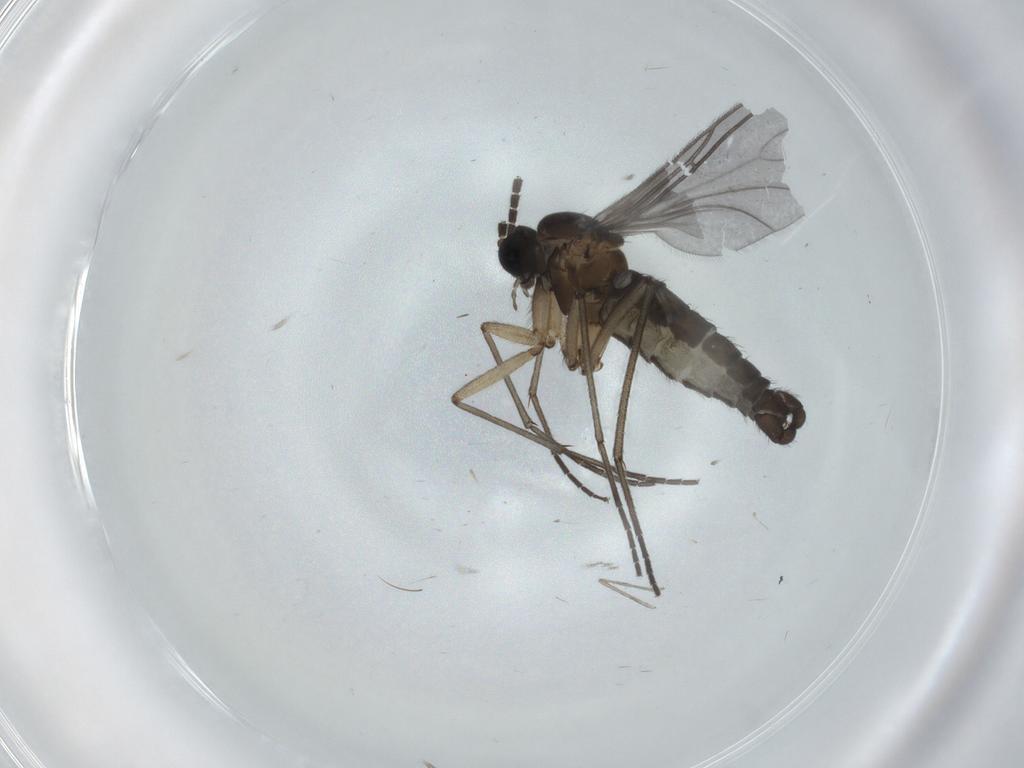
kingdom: Animalia
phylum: Arthropoda
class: Insecta
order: Diptera
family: Sciaridae
